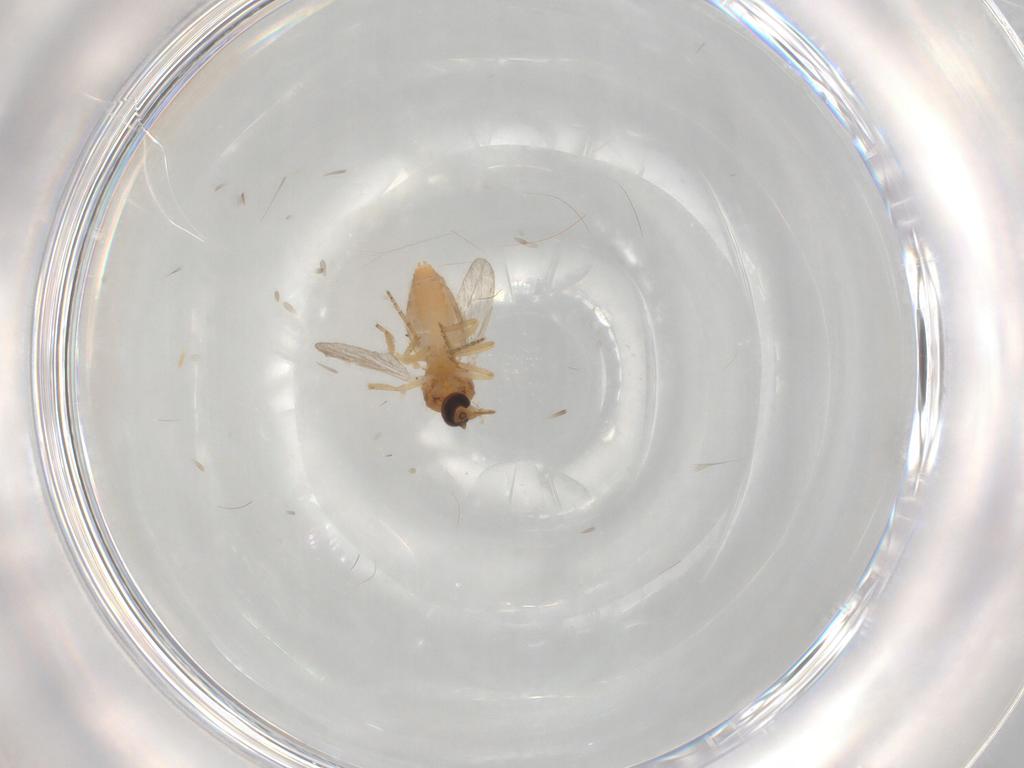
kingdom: Animalia
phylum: Arthropoda
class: Insecta
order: Diptera
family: Ceratopogonidae
